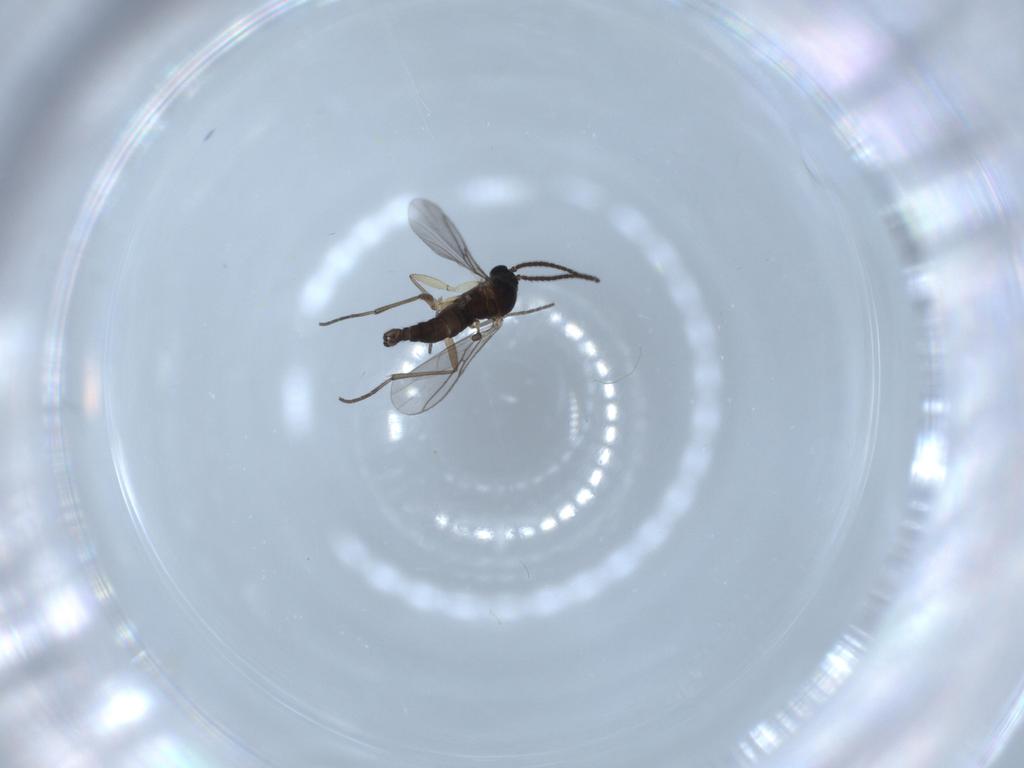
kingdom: Animalia
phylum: Arthropoda
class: Insecta
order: Diptera
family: Sciaridae
